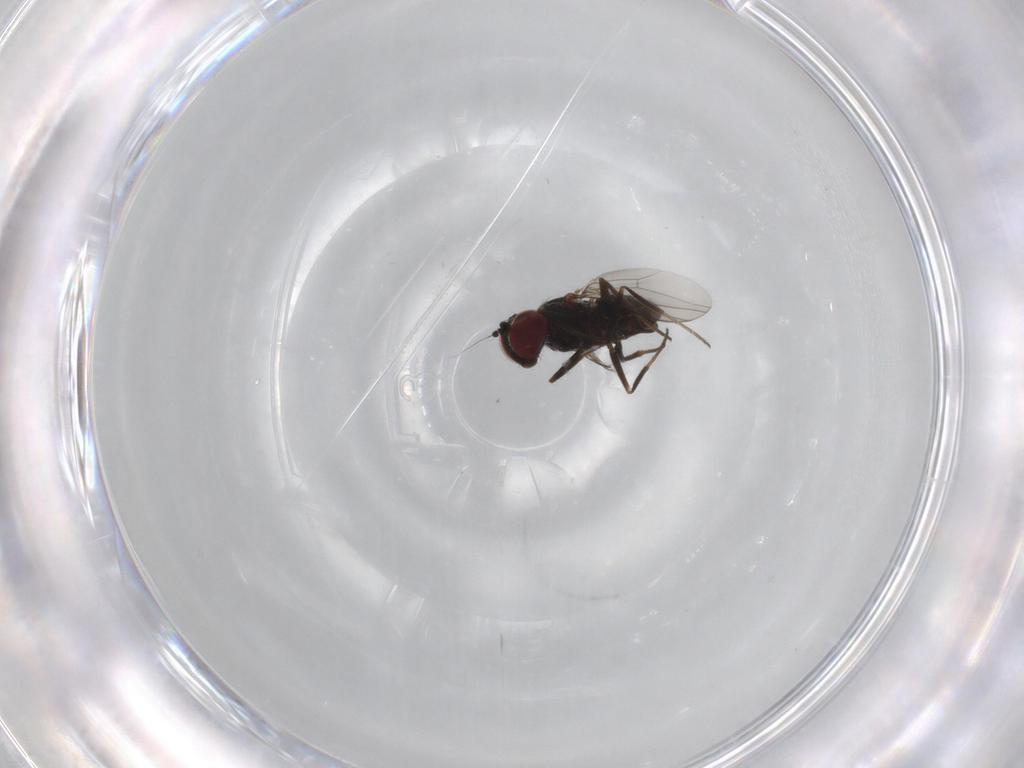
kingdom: Animalia
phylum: Arthropoda
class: Insecta
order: Diptera
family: Dolichopodidae
